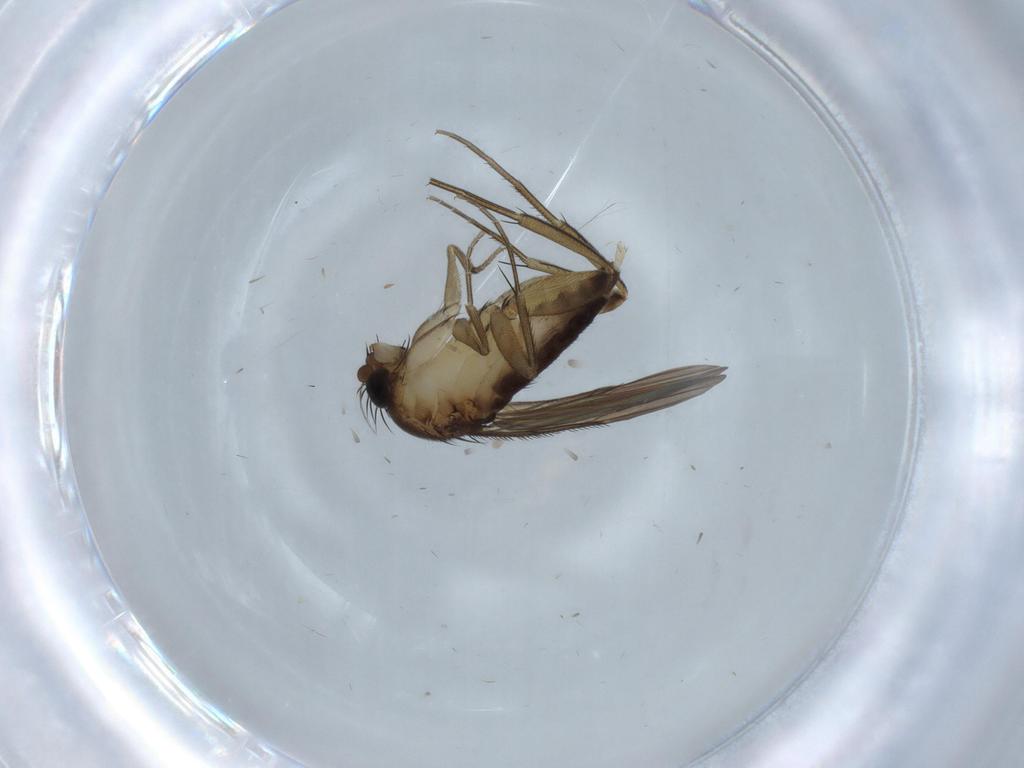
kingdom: Animalia
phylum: Arthropoda
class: Insecta
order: Diptera
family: Phoridae
